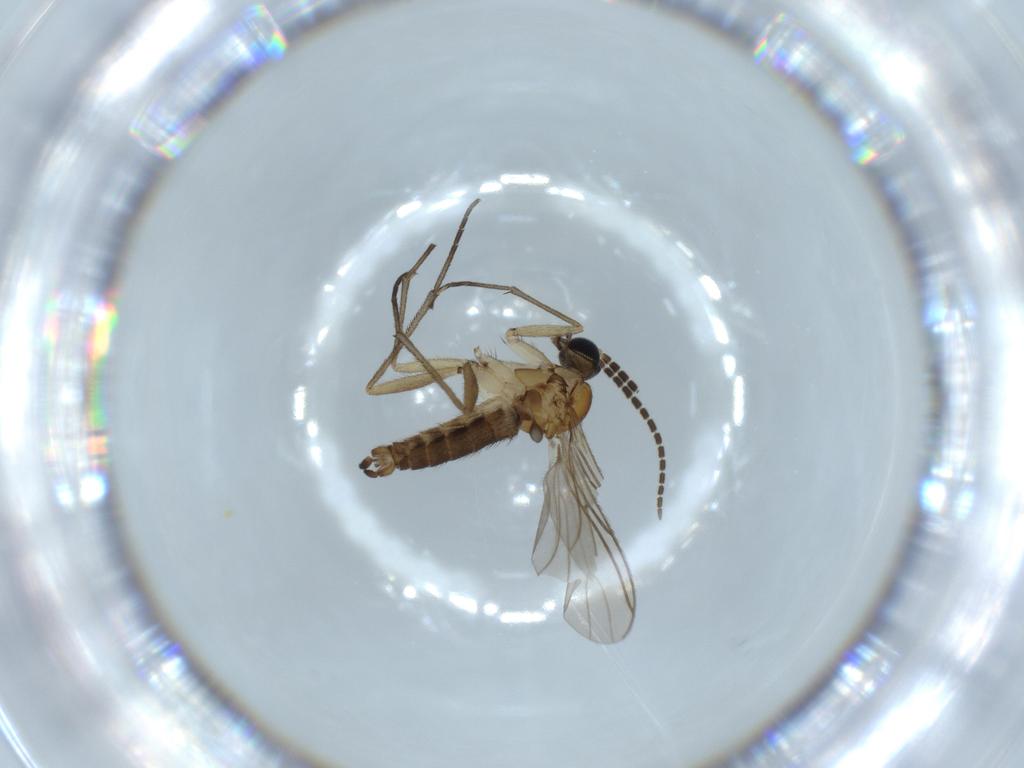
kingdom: Animalia
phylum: Arthropoda
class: Insecta
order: Diptera
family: Sciaridae
